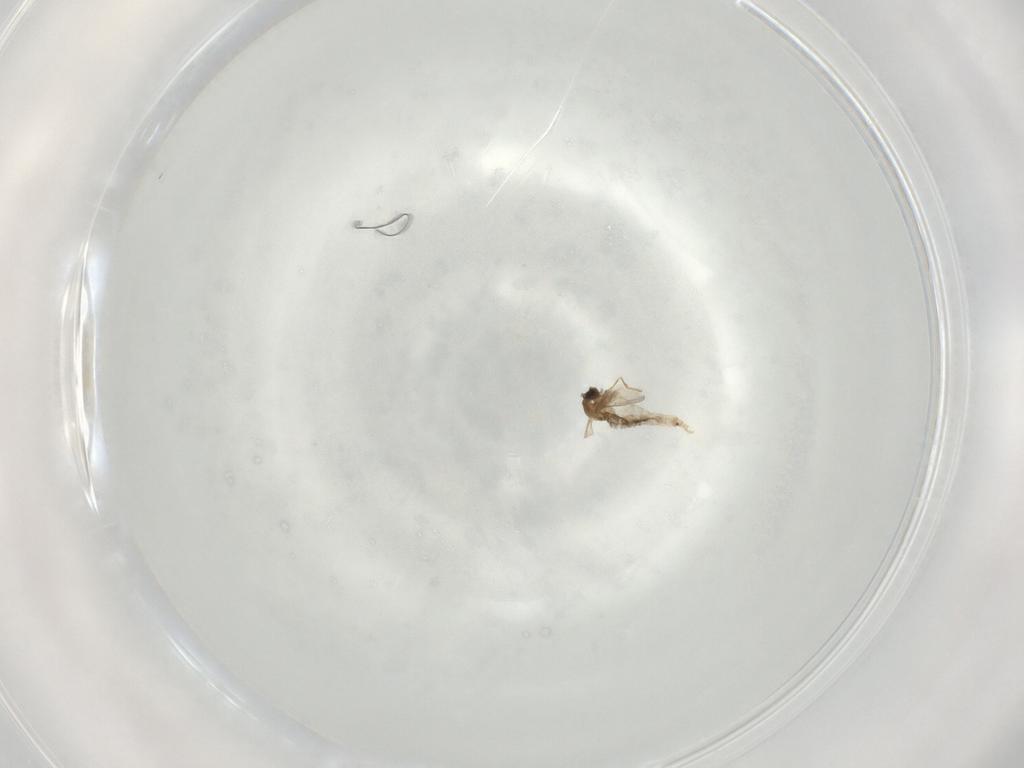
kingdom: Animalia
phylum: Arthropoda
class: Insecta
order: Diptera
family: Cecidomyiidae
